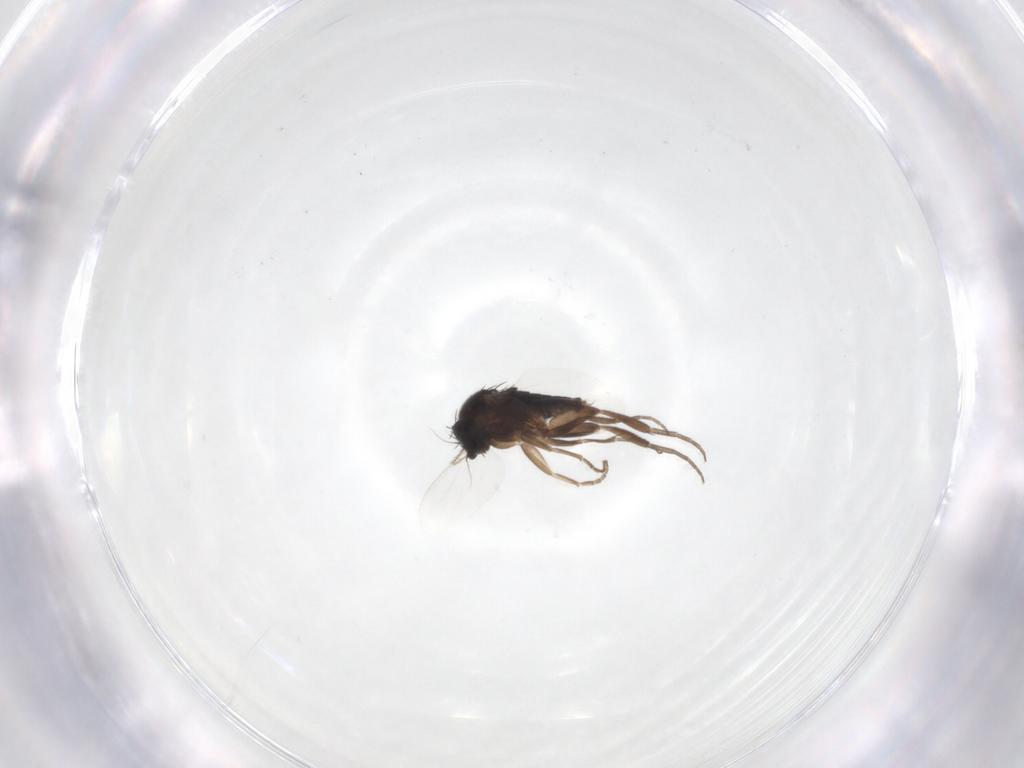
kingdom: Animalia
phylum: Arthropoda
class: Insecta
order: Diptera
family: Phoridae
